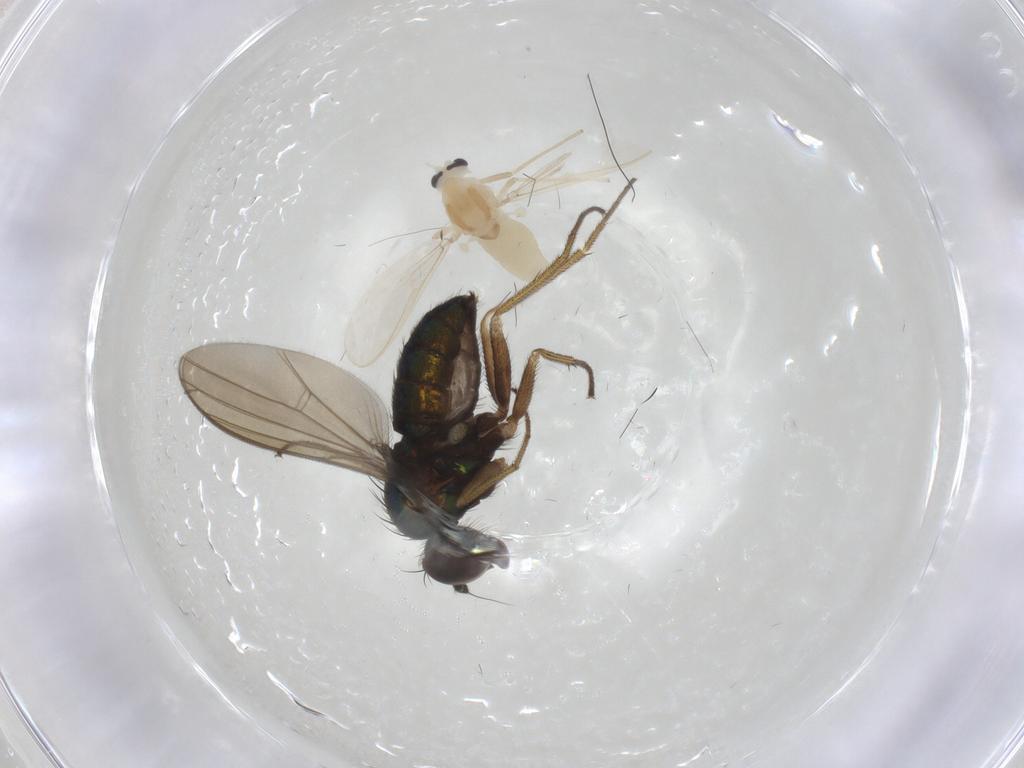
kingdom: Animalia
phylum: Arthropoda
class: Insecta
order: Diptera
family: Dolichopodidae
